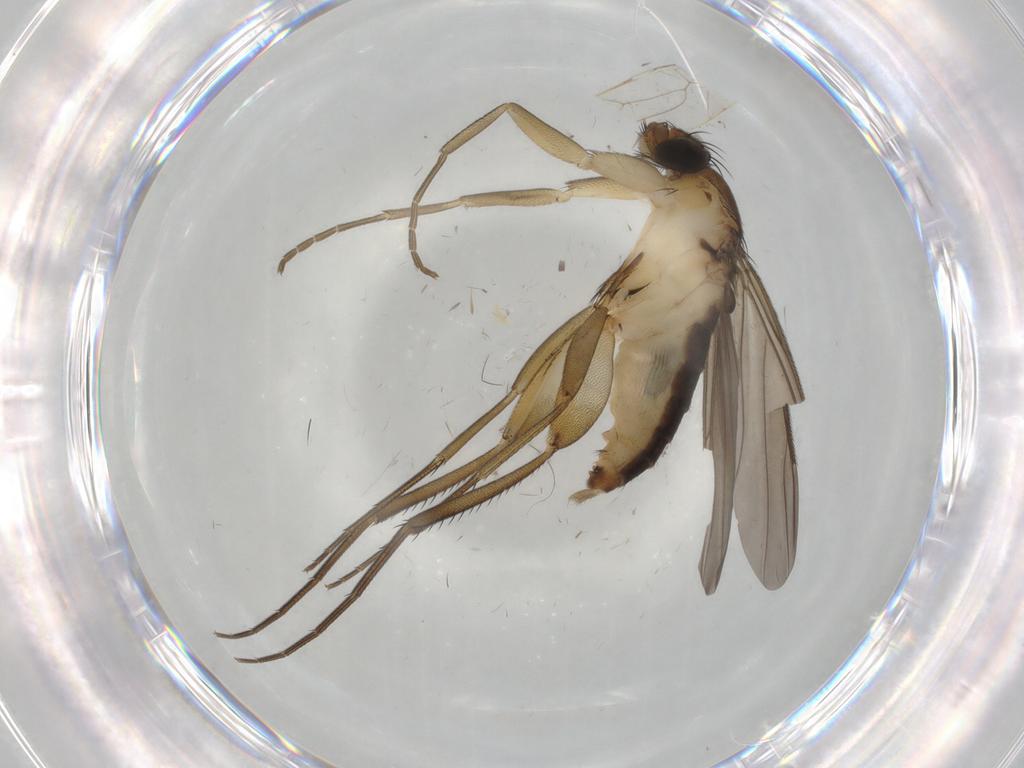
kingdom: Animalia
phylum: Arthropoda
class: Insecta
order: Diptera
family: Phoridae
